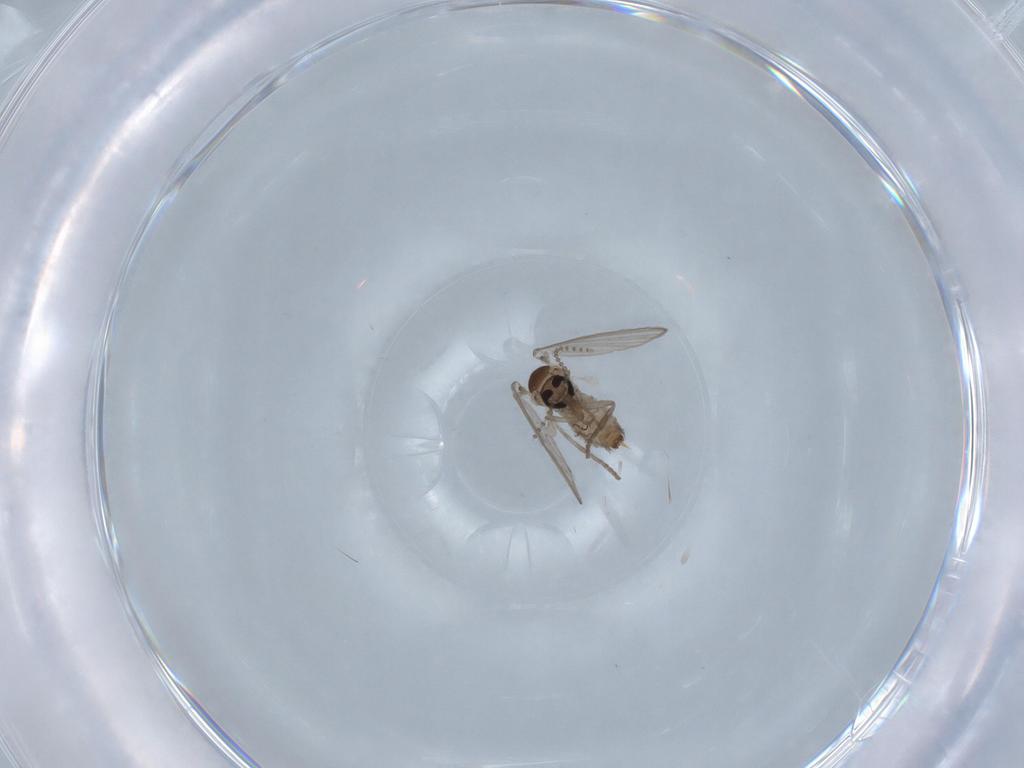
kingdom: Animalia
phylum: Arthropoda
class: Insecta
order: Diptera
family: Psychodidae
